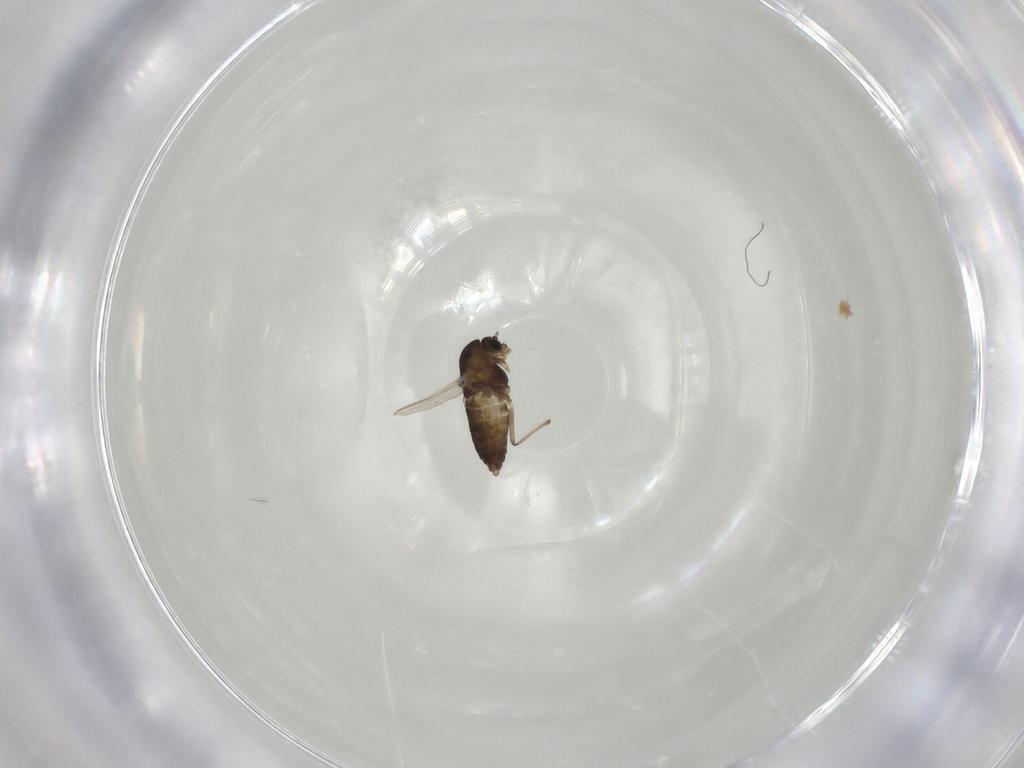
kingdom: Animalia
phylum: Arthropoda
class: Insecta
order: Diptera
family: Chironomidae
